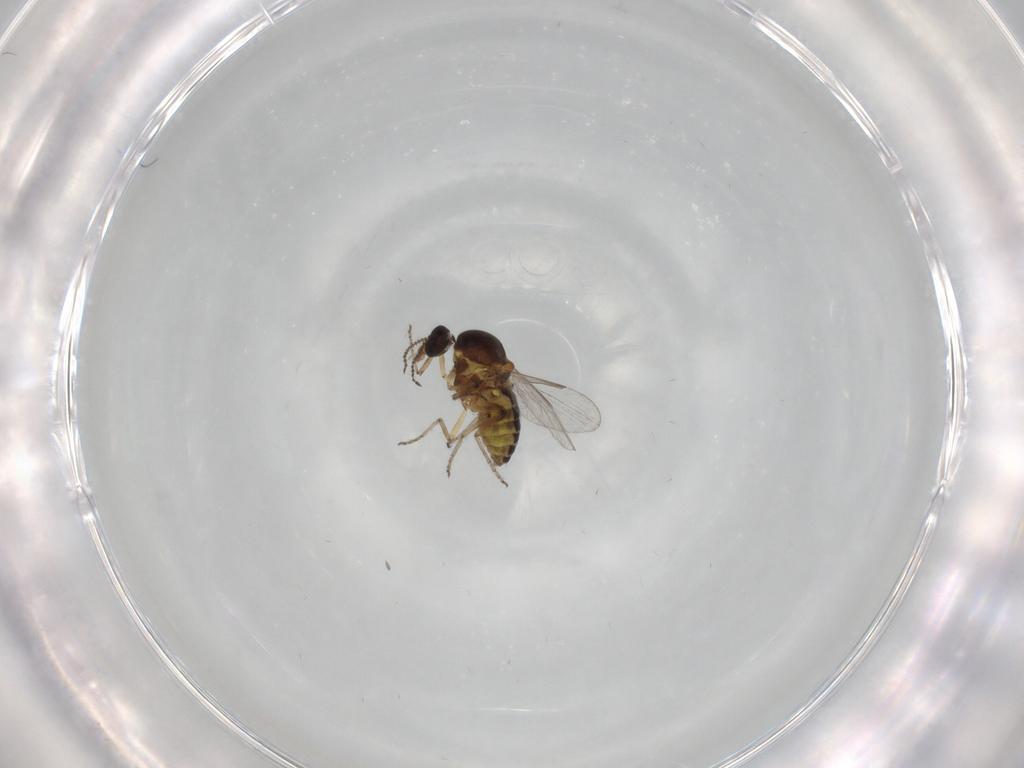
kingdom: Animalia
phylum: Arthropoda
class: Insecta
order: Diptera
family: Ceratopogonidae
